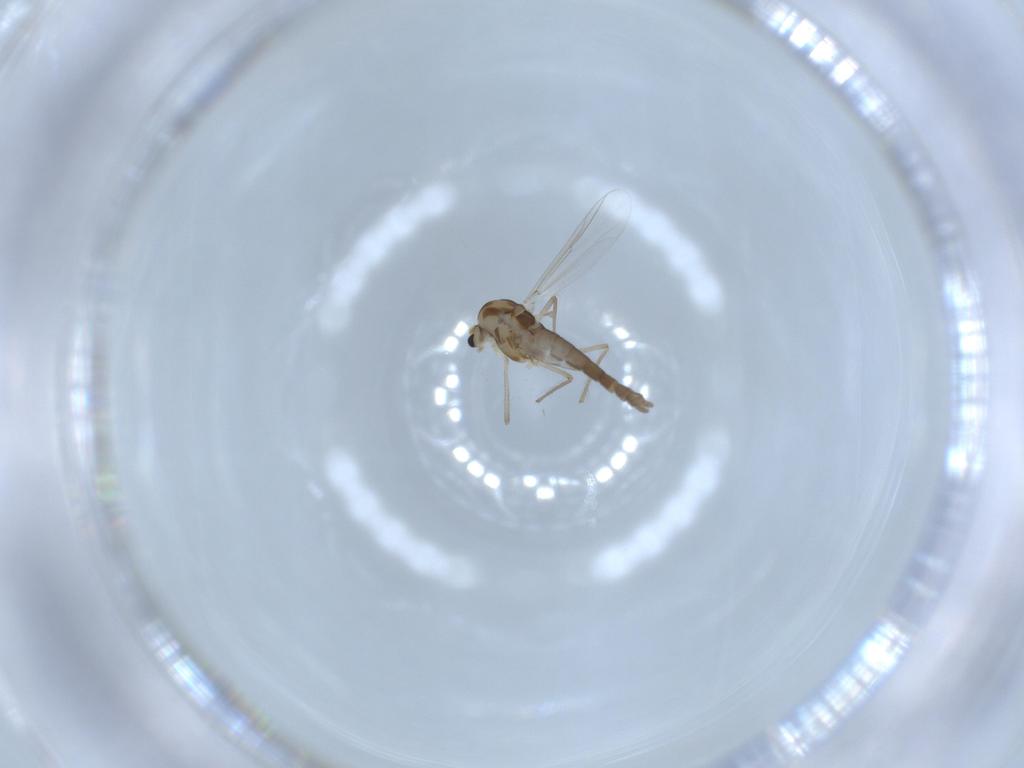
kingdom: Animalia
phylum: Arthropoda
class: Insecta
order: Diptera
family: Chironomidae
